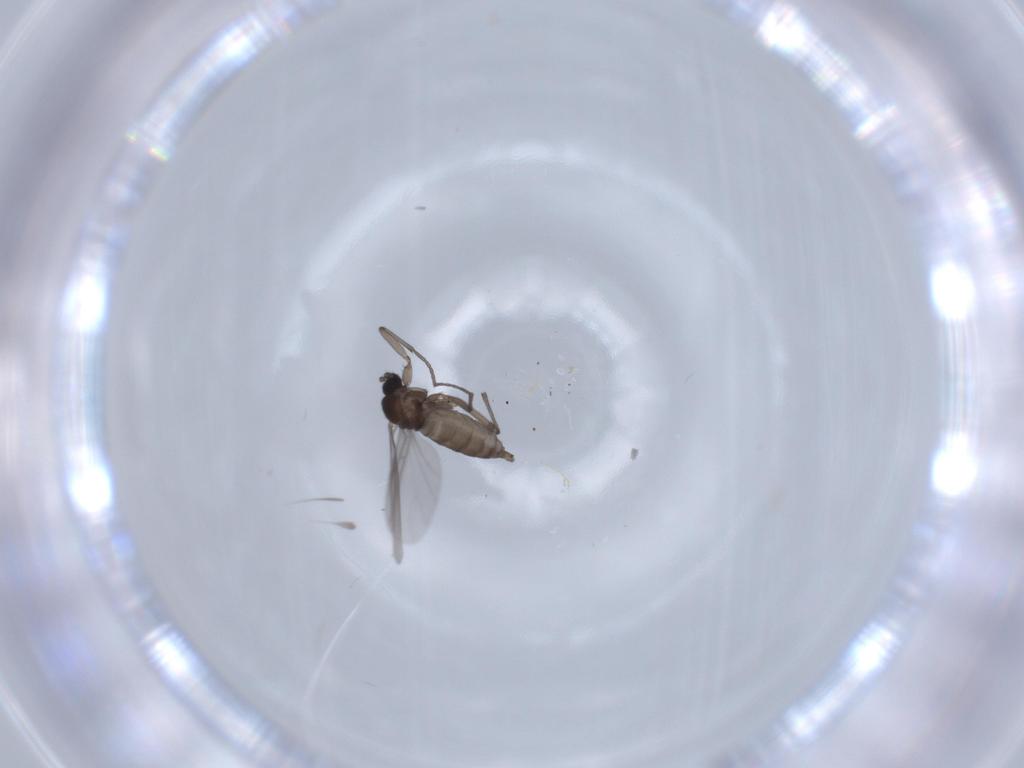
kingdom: Animalia
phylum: Arthropoda
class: Insecta
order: Diptera
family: Sciaridae
